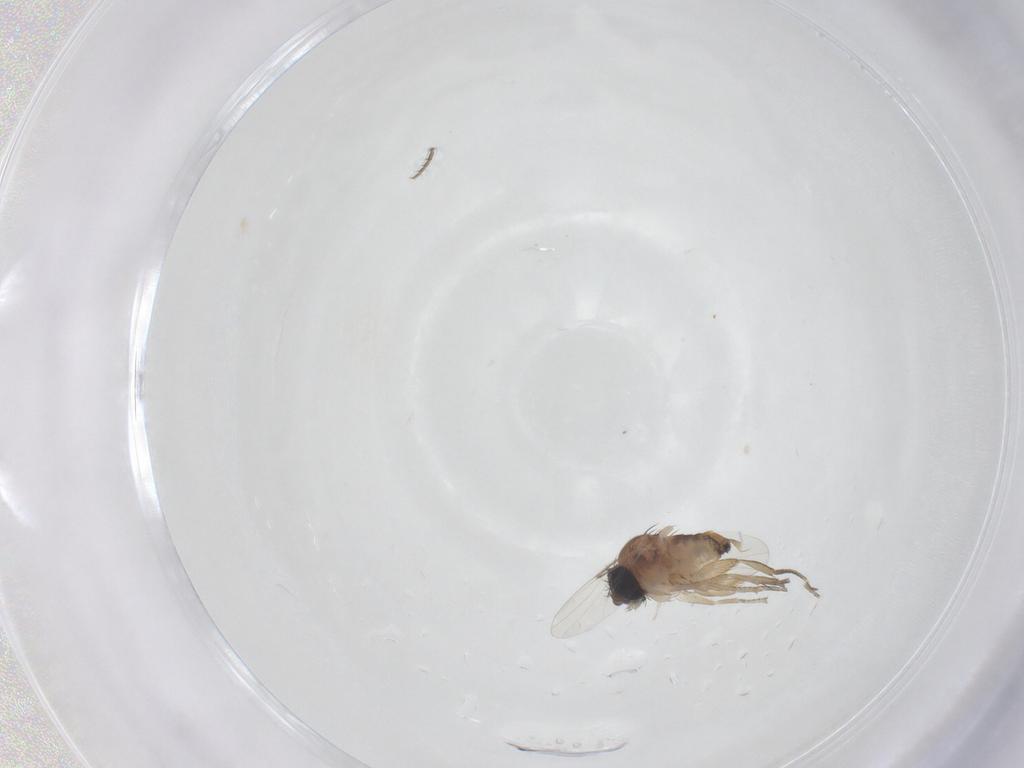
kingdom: Animalia
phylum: Arthropoda
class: Insecta
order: Diptera
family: Phoridae
